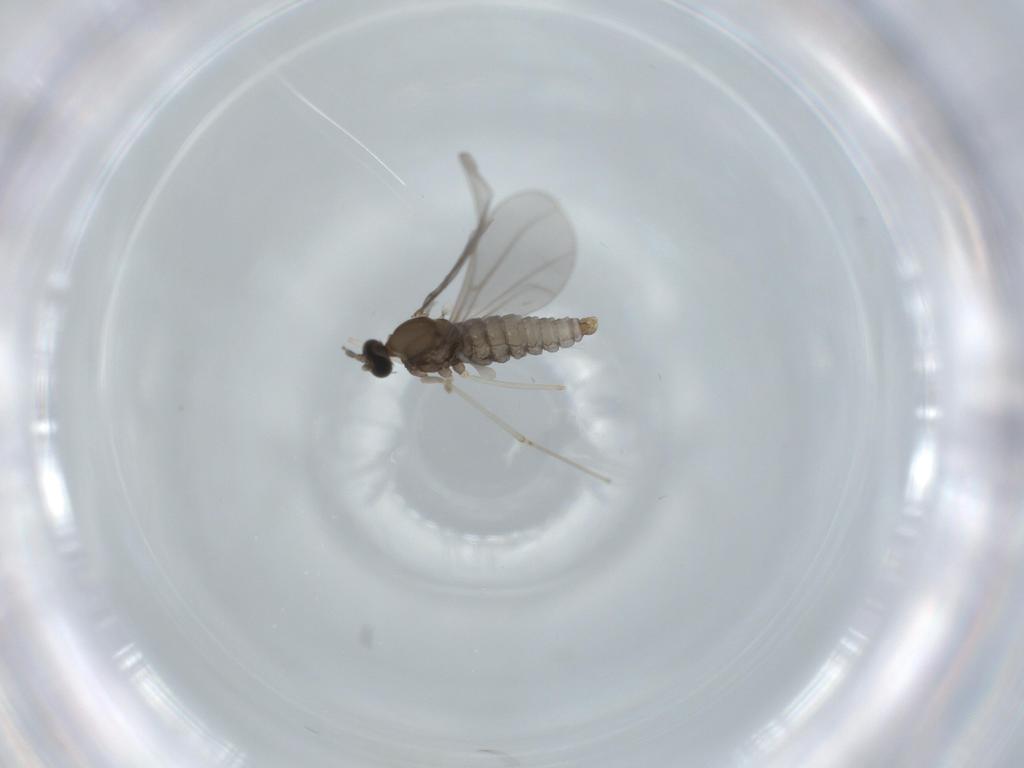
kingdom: Animalia
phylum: Arthropoda
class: Insecta
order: Diptera
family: Cecidomyiidae
